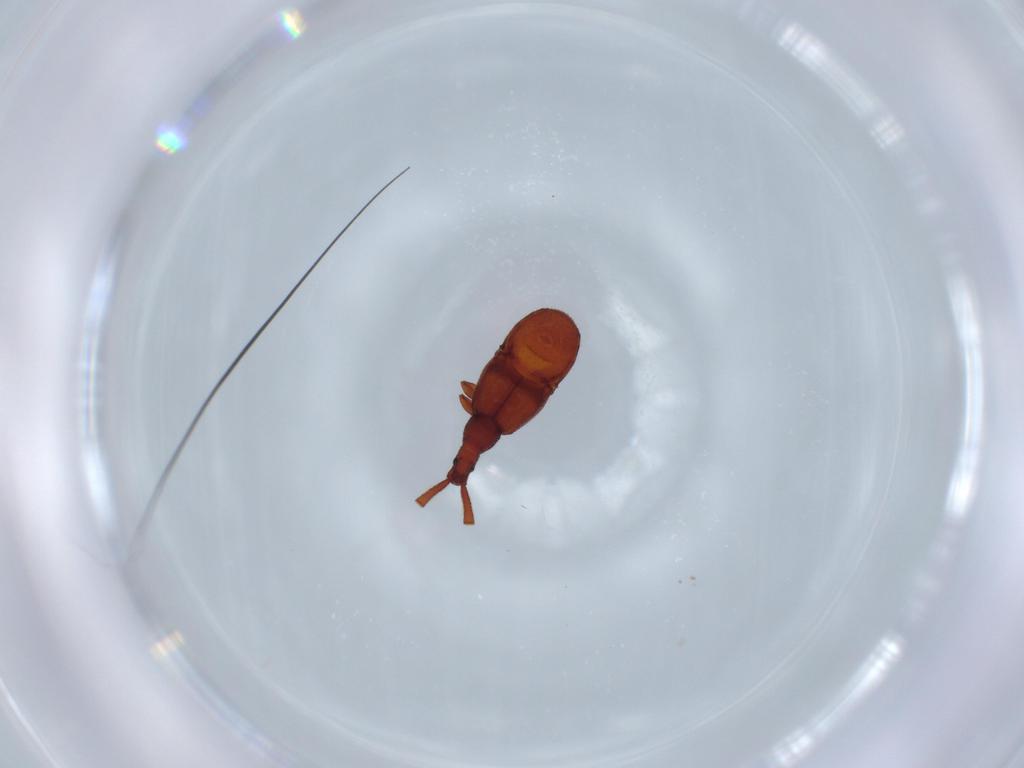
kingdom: Animalia
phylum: Arthropoda
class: Insecta
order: Coleoptera
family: Staphylinidae
